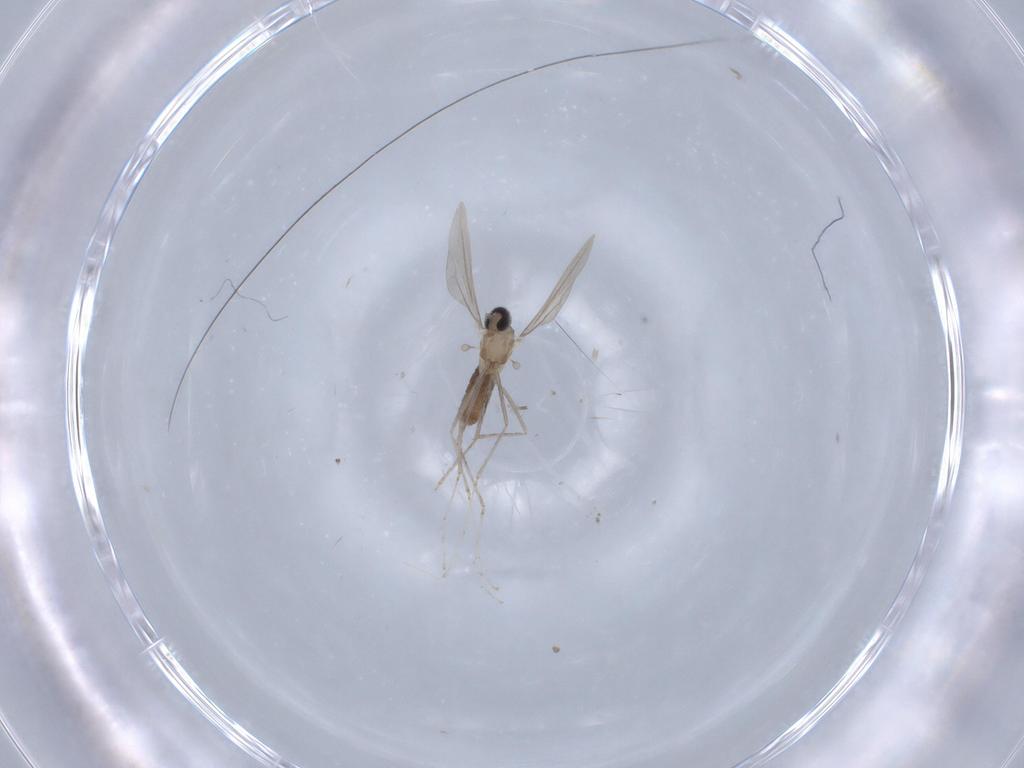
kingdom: Animalia
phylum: Arthropoda
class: Insecta
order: Diptera
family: Cecidomyiidae
